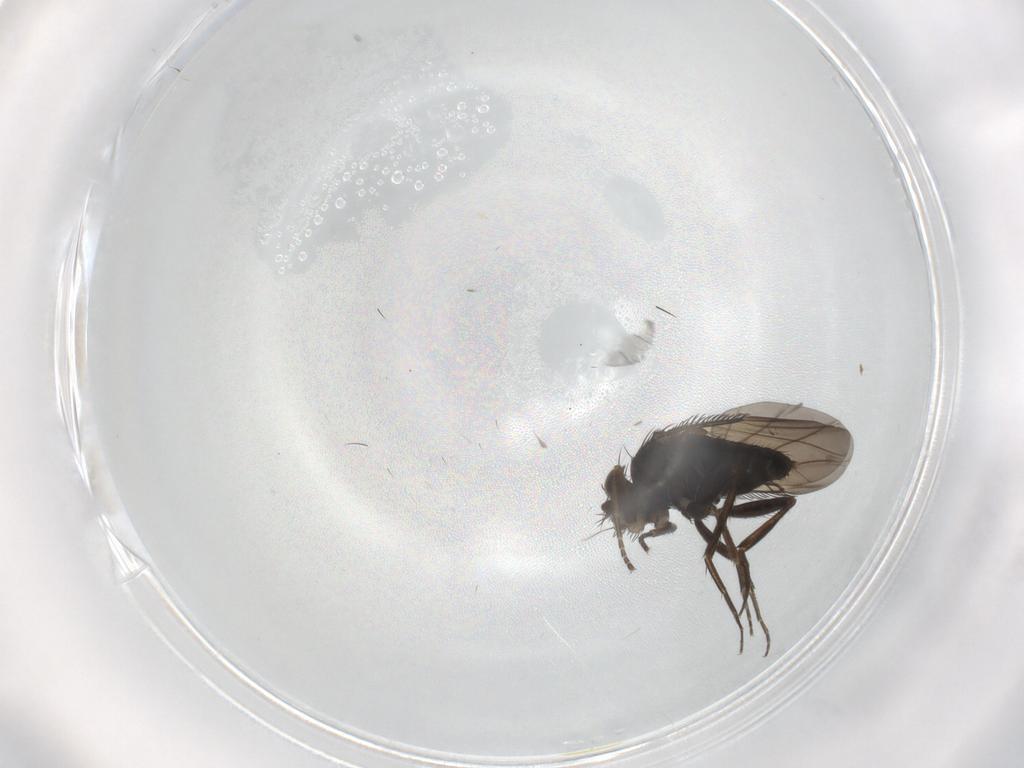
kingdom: Animalia
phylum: Arthropoda
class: Insecta
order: Diptera
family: Phoridae
